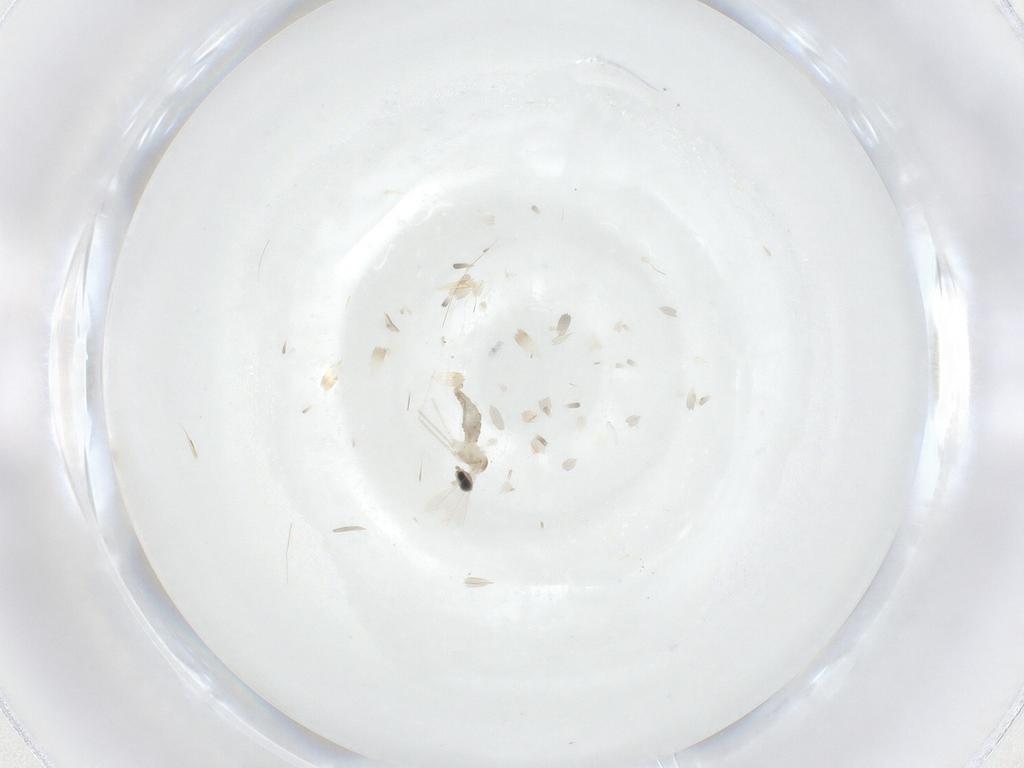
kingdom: Animalia
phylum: Arthropoda
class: Insecta
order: Diptera
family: Cecidomyiidae
